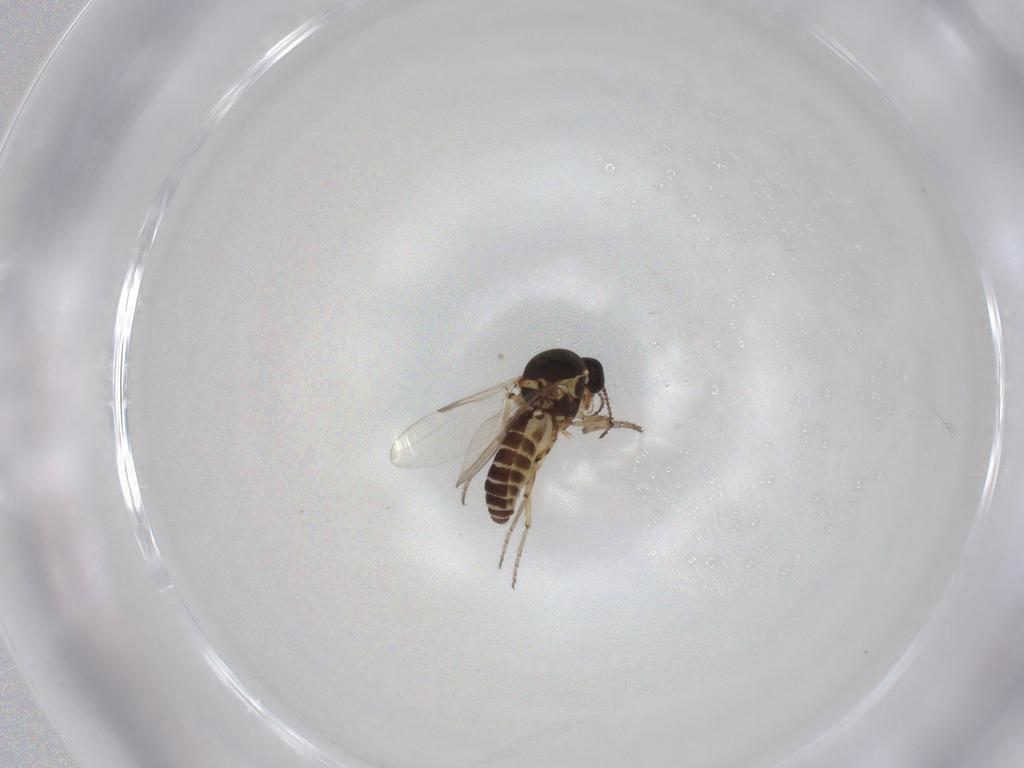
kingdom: Animalia
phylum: Arthropoda
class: Insecta
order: Diptera
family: Ceratopogonidae
